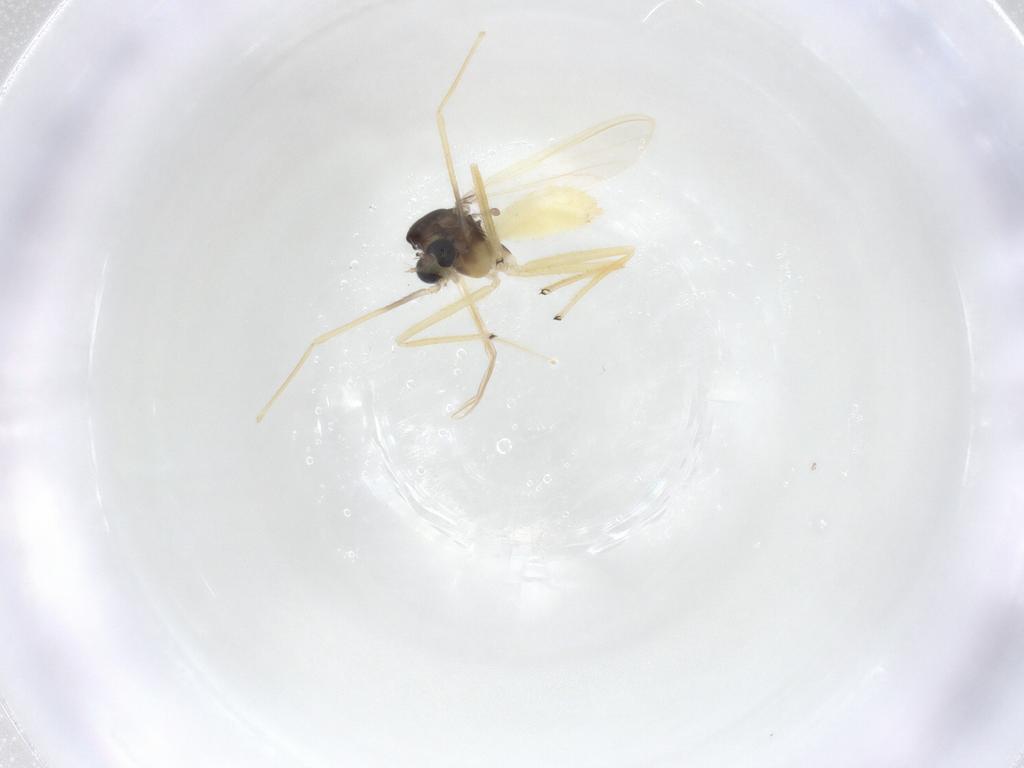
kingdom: Animalia
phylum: Arthropoda
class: Insecta
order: Diptera
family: Chironomidae
